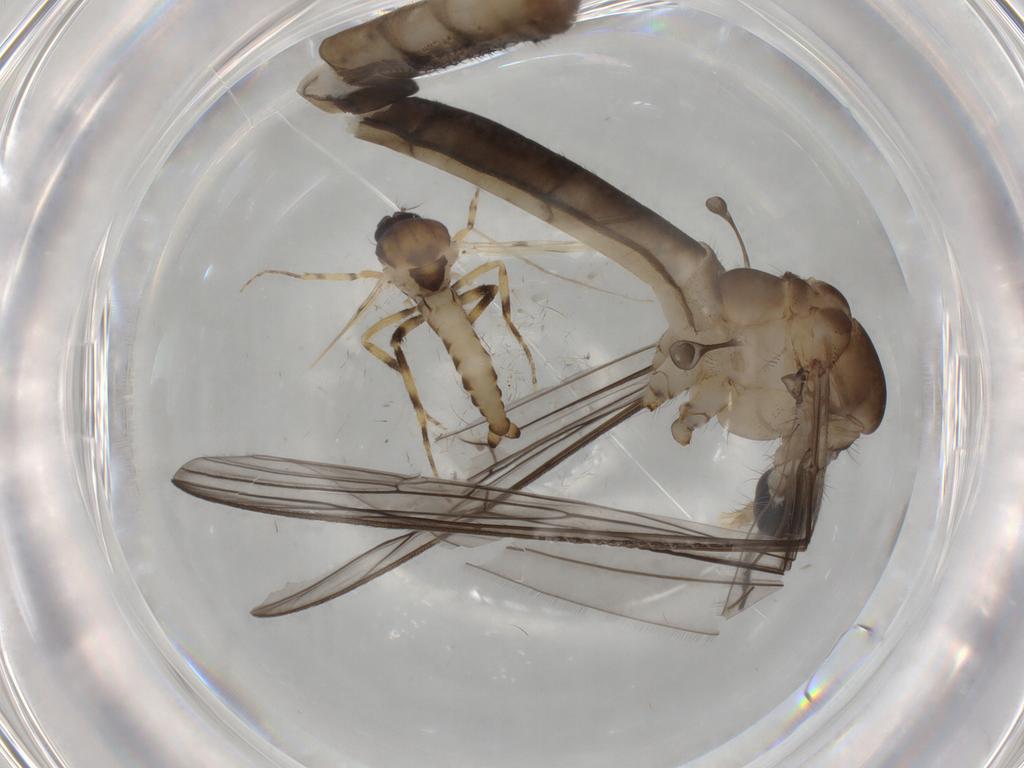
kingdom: Animalia
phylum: Arthropoda
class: Insecta
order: Diptera
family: Limoniidae
